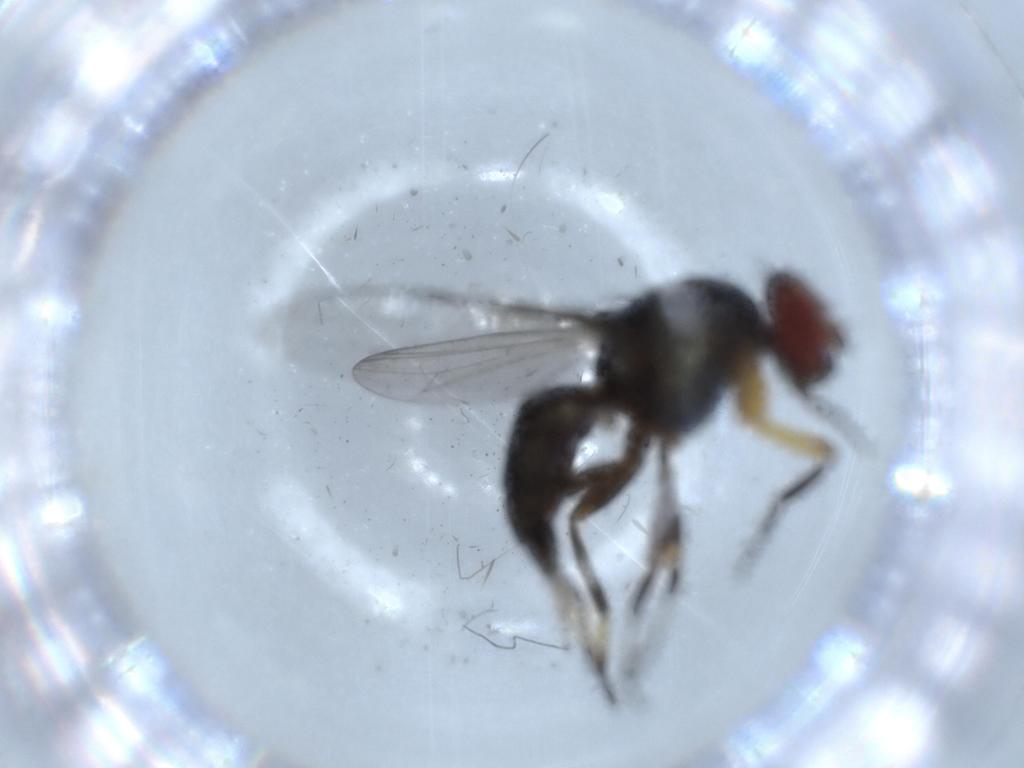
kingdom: Animalia
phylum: Arthropoda
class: Insecta
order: Diptera
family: Ulidiidae
